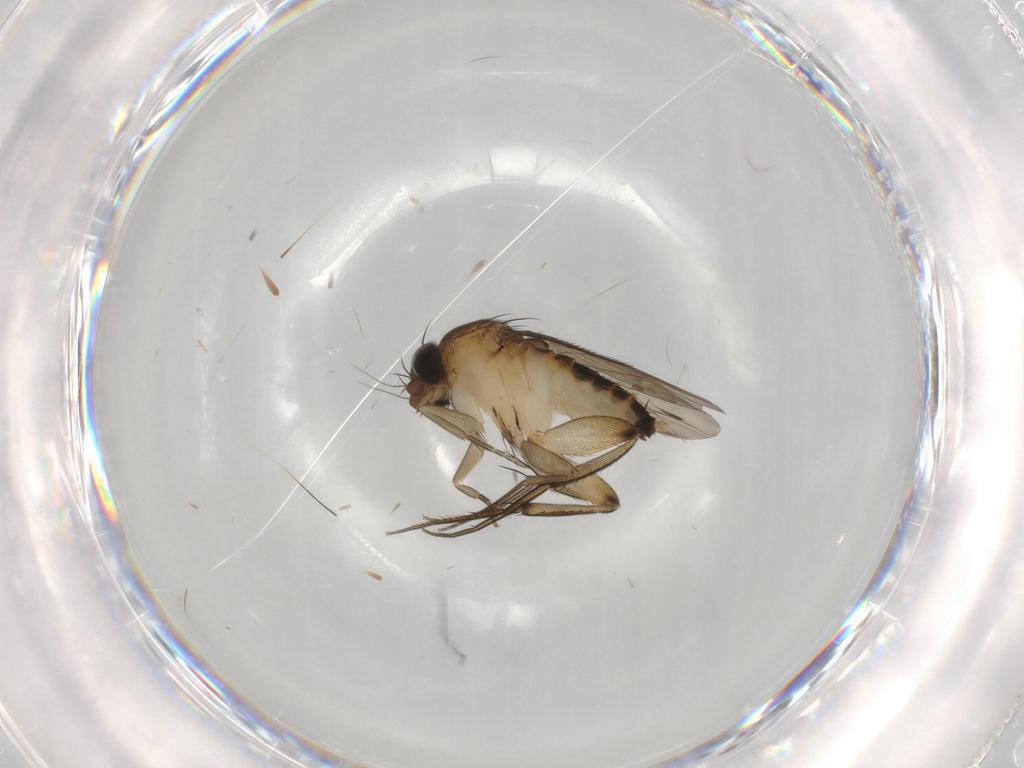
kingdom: Animalia
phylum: Arthropoda
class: Insecta
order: Diptera
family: Phoridae
